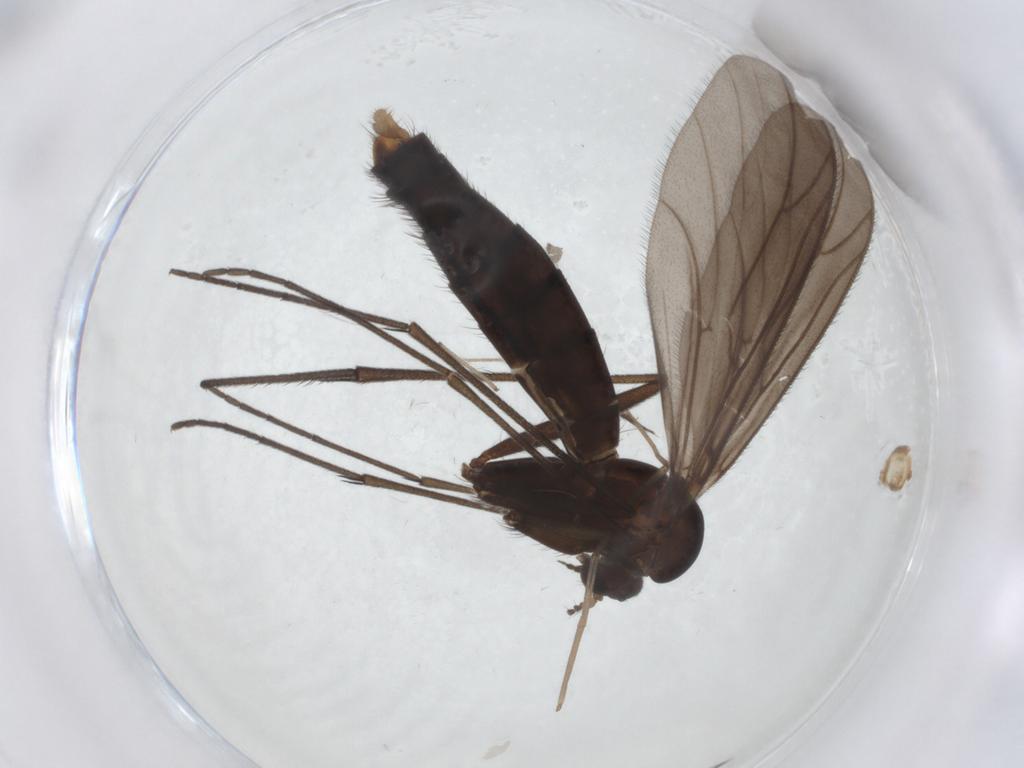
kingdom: Animalia
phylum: Arthropoda
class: Insecta
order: Diptera
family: Ditomyiidae
